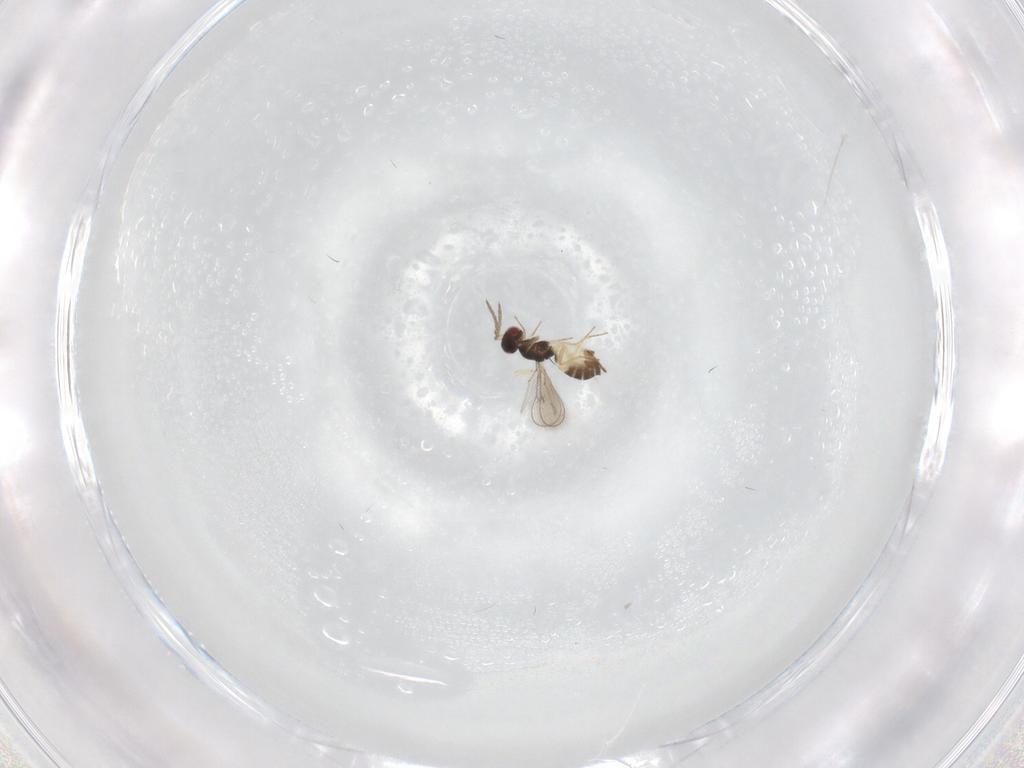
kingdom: Animalia
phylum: Arthropoda
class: Insecta
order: Hymenoptera
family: Eulophidae
